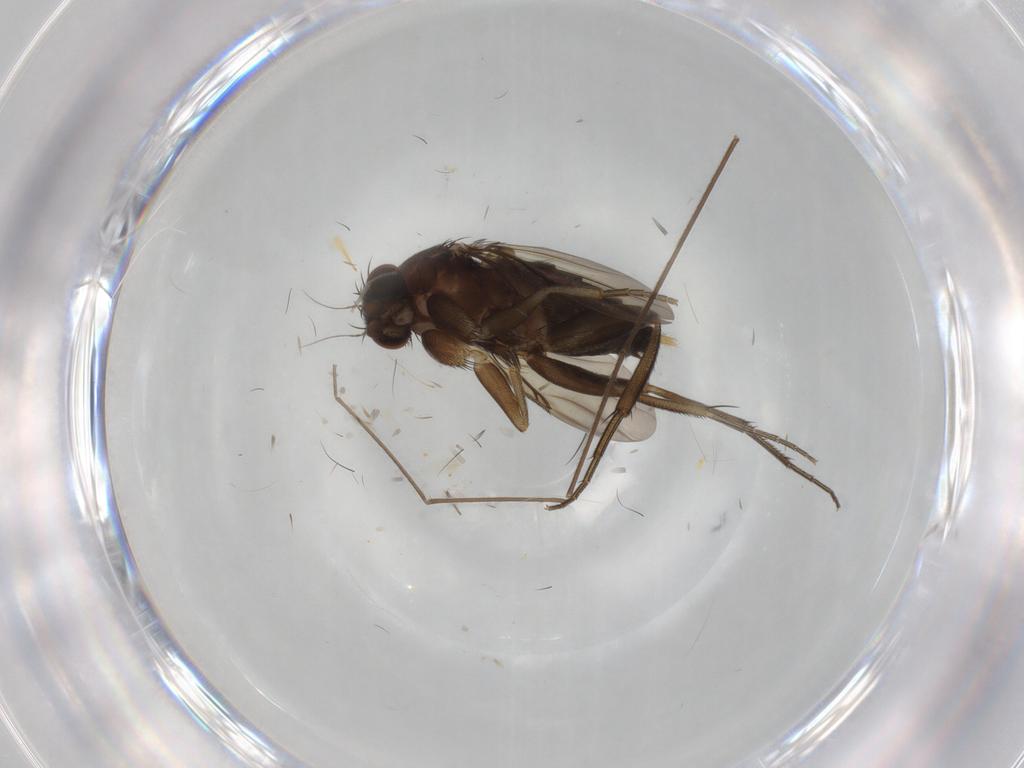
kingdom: Animalia
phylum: Arthropoda
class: Insecta
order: Diptera
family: Phoridae
